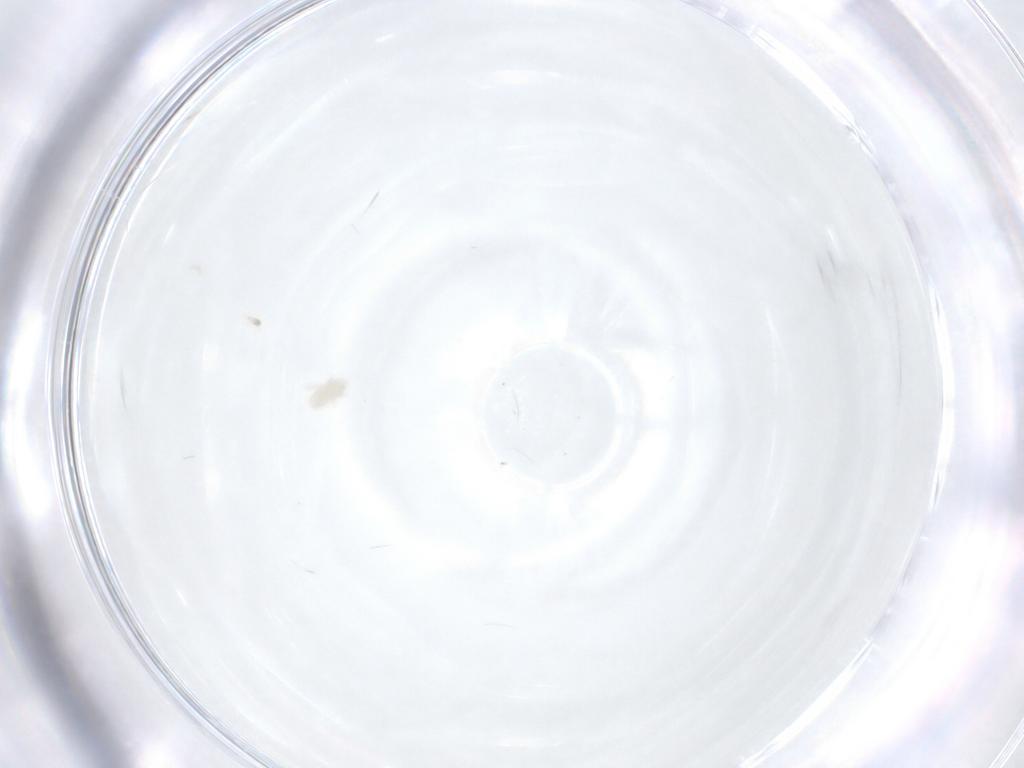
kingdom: Animalia
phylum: Arthropoda
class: Arachnida
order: Trombidiformes
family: Eupodidae
